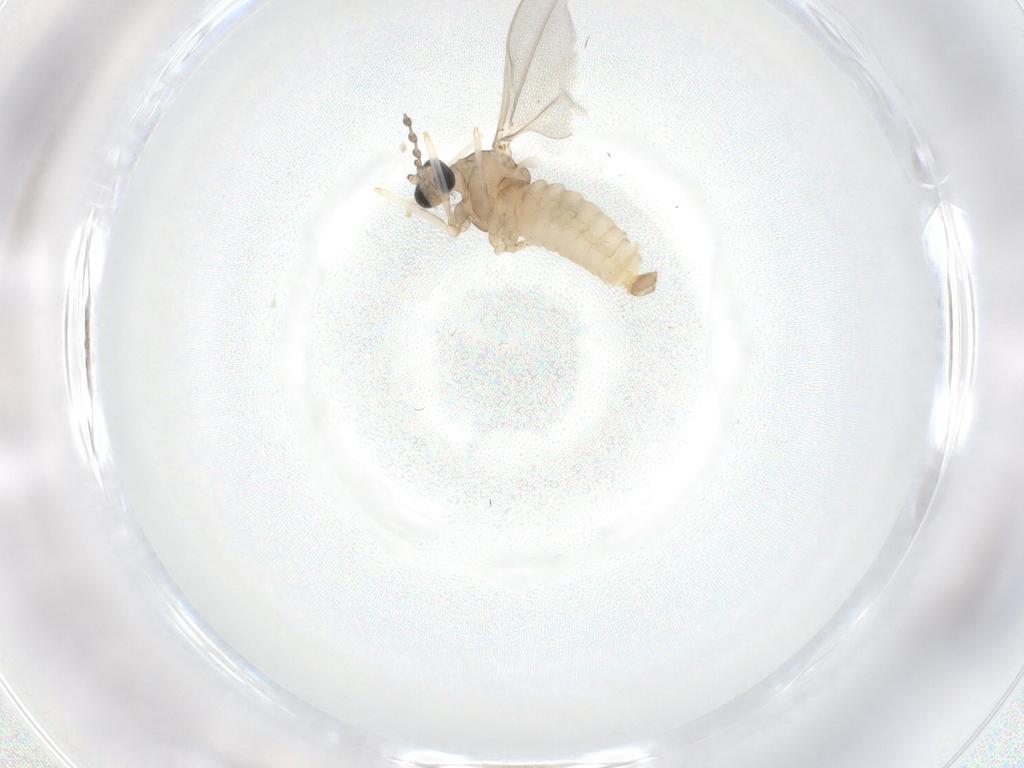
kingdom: Animalia
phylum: Arthropoda
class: Insecta
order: Diptera
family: Cecidomyiidae
